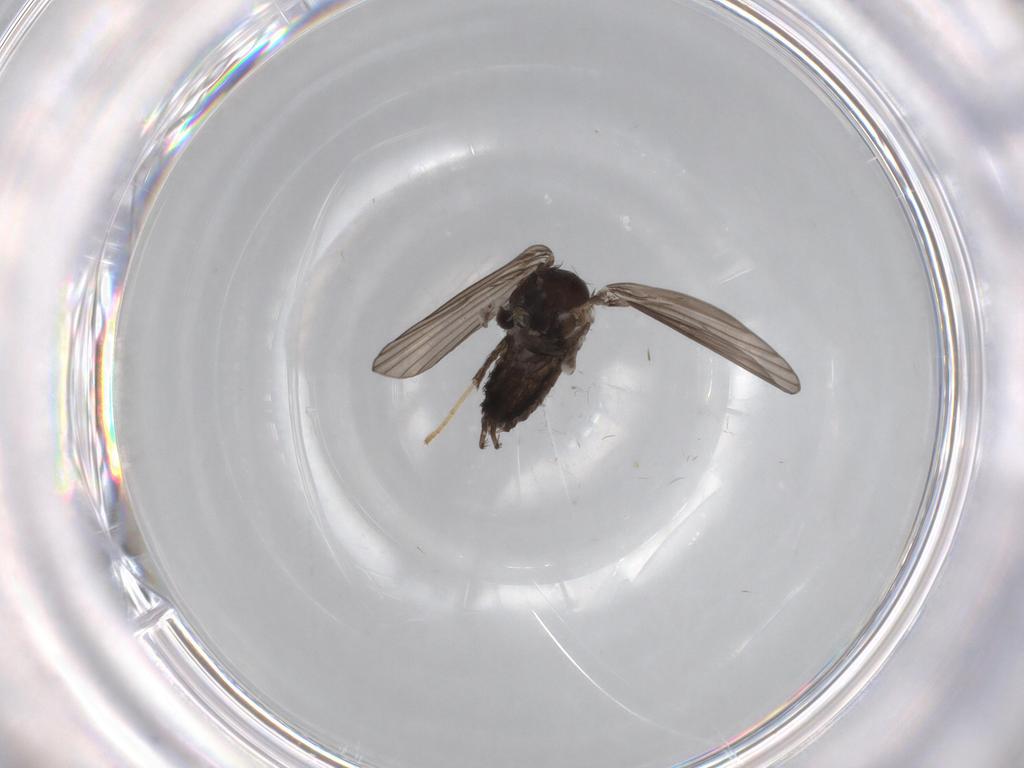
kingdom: Animalia
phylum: Arthropoda
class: Insecta
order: Diptera
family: Psychodidae
